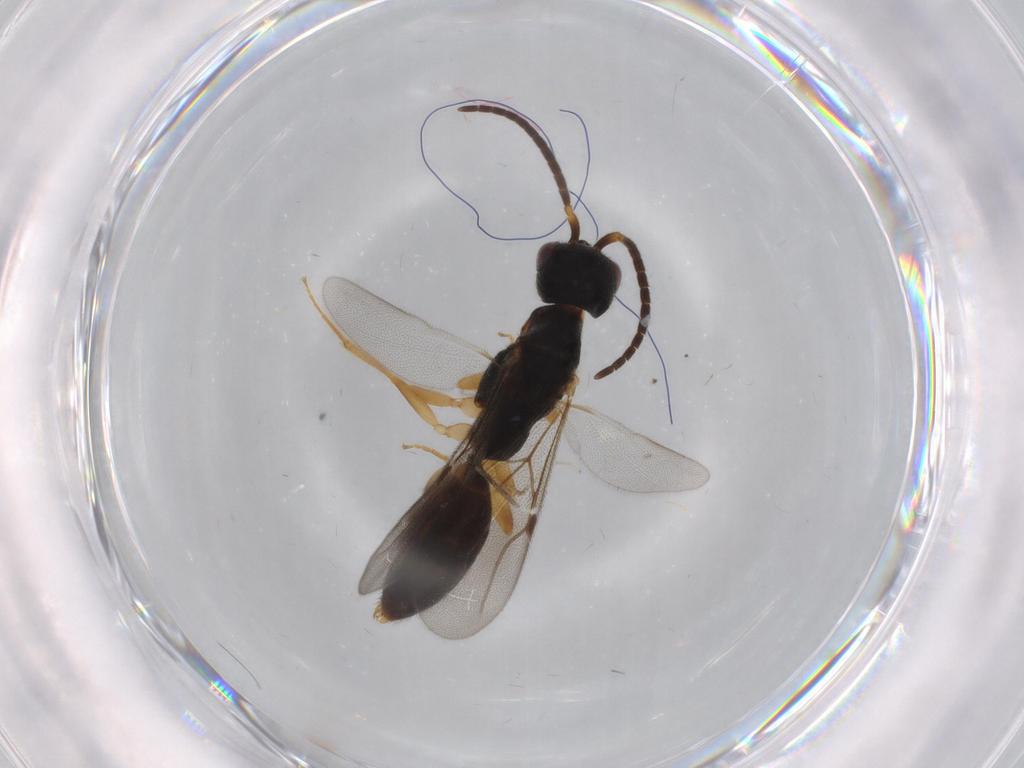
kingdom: Animalia
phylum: Arthropoda
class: Insecta
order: Hymenoptera
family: Bethylidae
